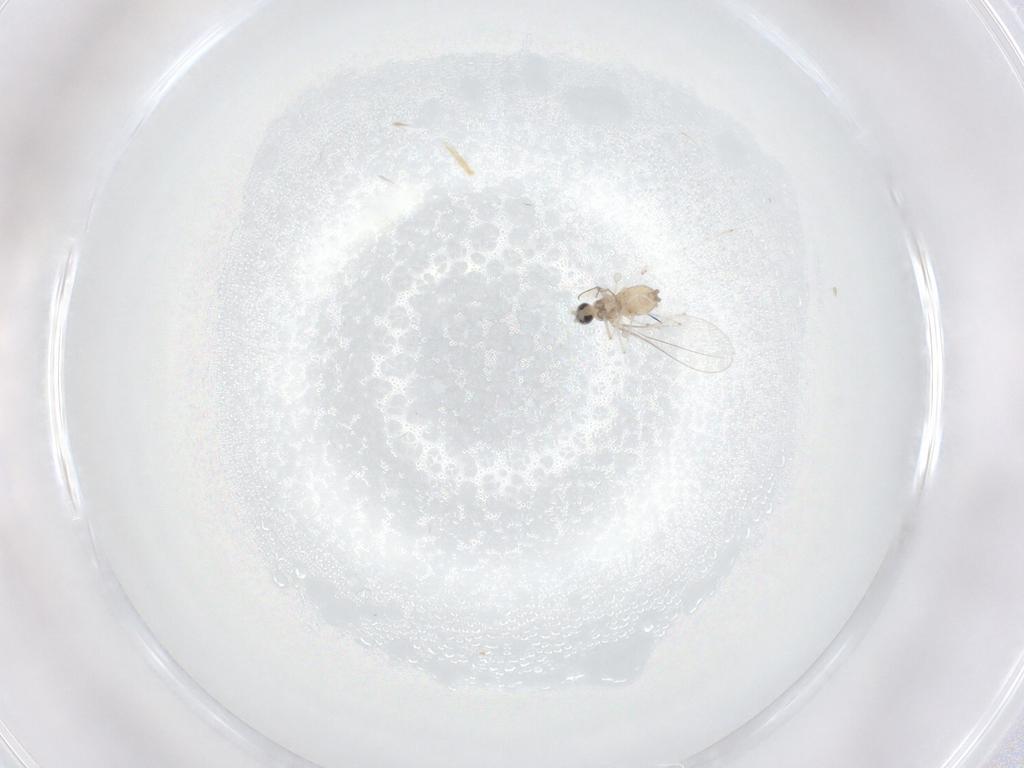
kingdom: Animalia
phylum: Arthropoda
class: Insecta
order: Diptera
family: Cecidomyiidae
